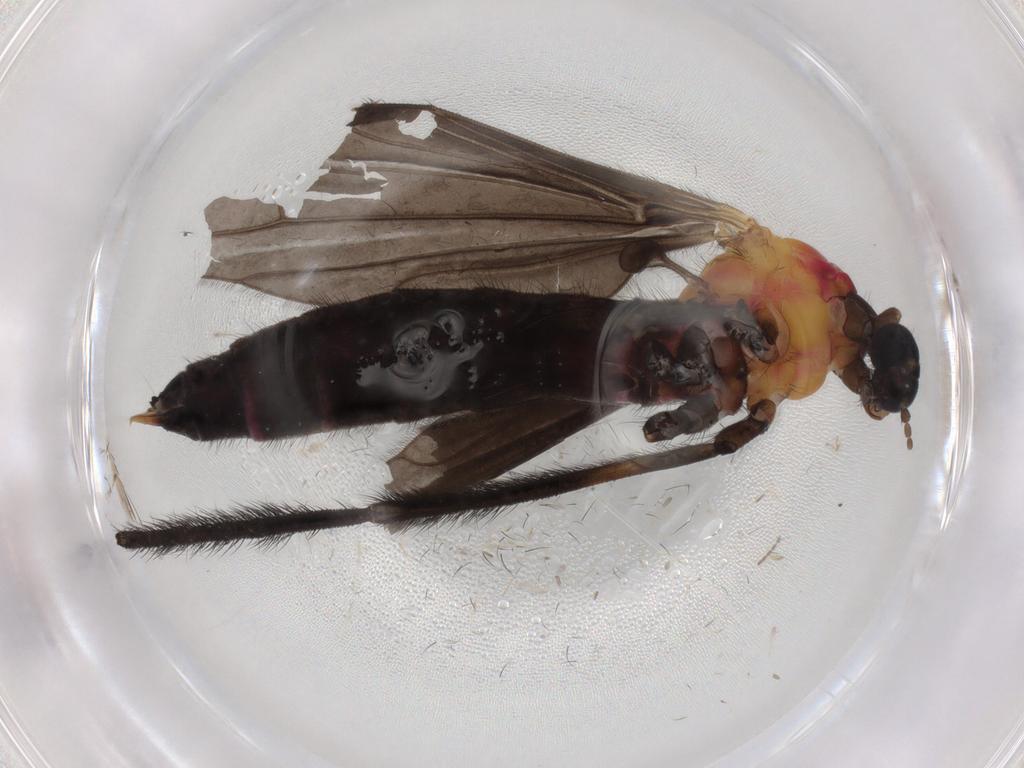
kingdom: Animalia
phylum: Arthropoda
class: Insecta
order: Diptera
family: Chironomidae
